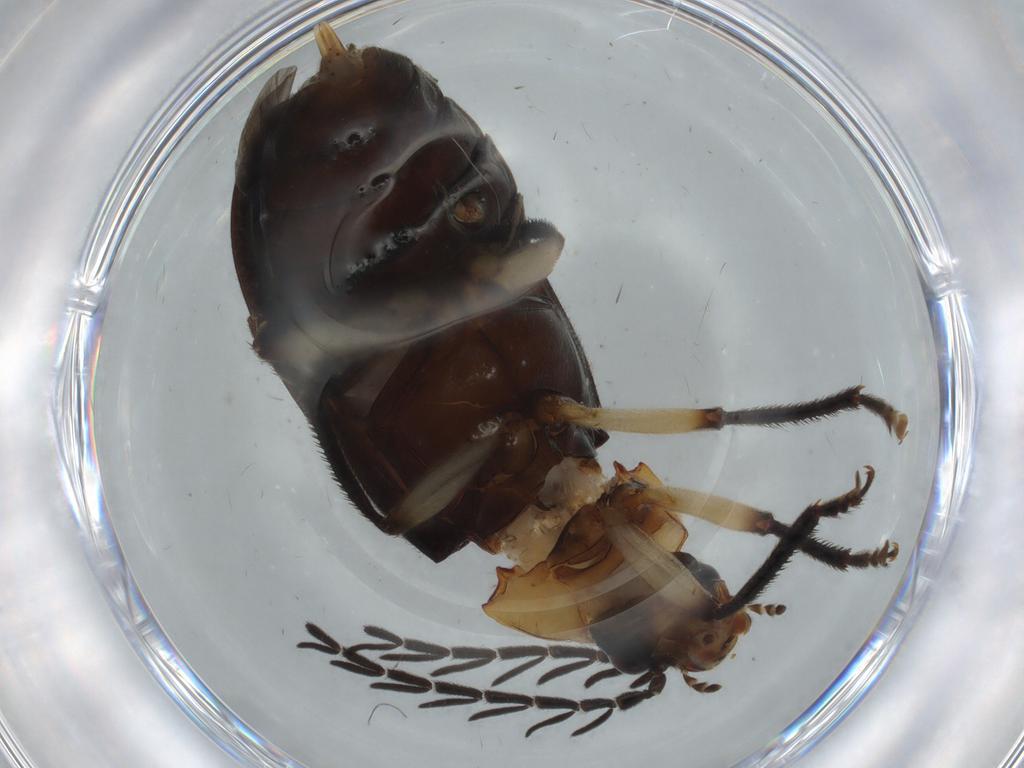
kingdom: Animalia
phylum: Arthropoda
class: Insecta
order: Coleoptera
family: Ptilodactylidae
